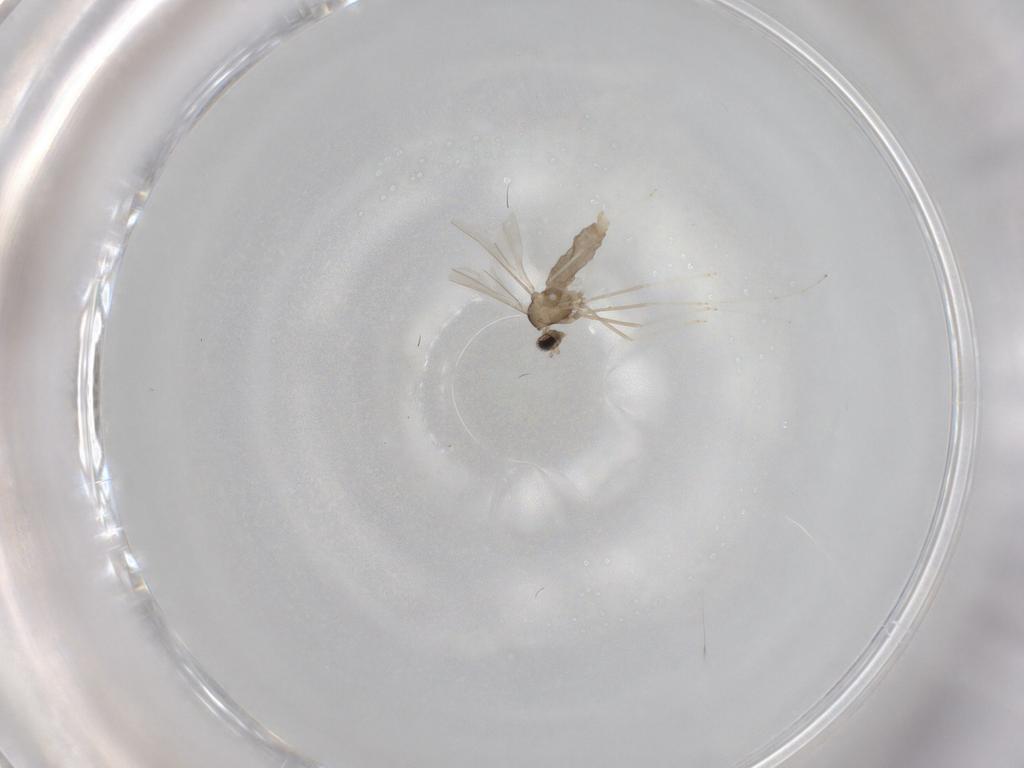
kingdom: Animalia
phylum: Arthropoda
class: Insecta
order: Diptera
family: Cecidomyiidae
